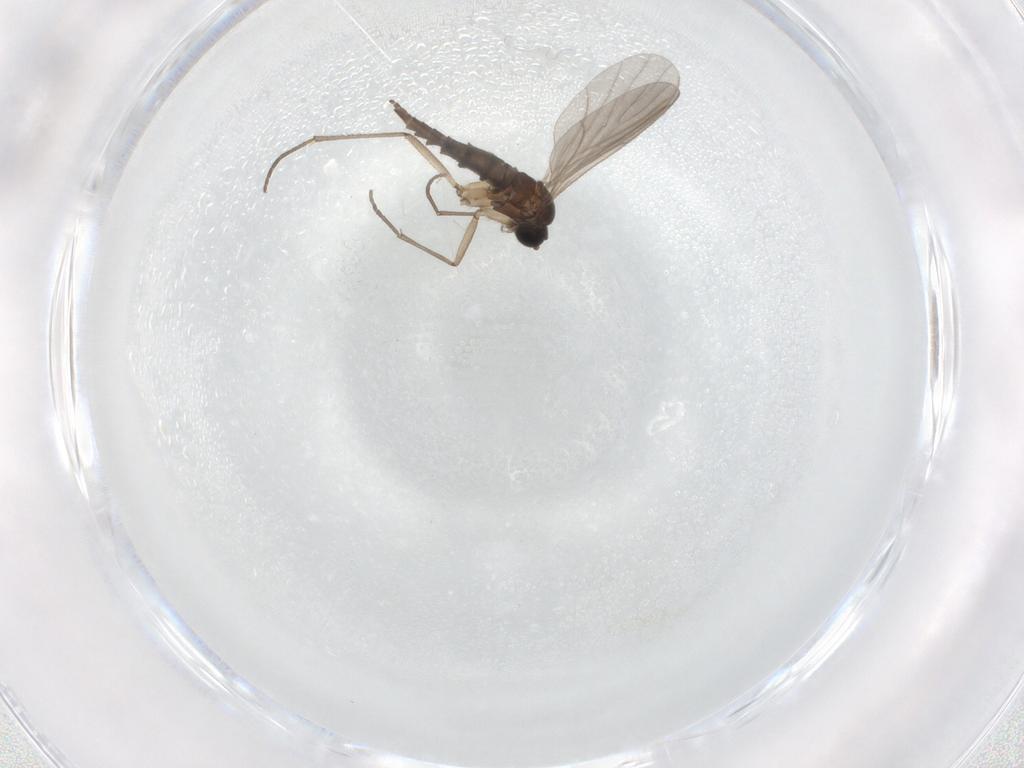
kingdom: Animalia
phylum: Arthropoda
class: Insecta
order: Diptera
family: Sciaridae
